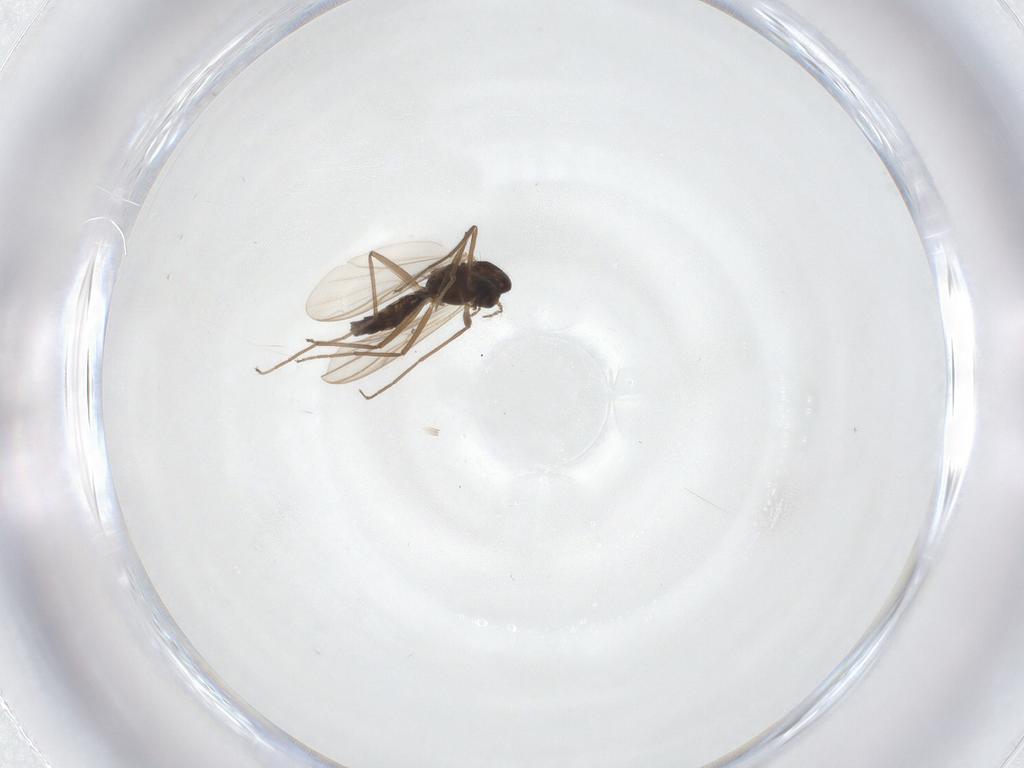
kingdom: Animalia
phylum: Arthropoda
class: Insecta
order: Diptera
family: Psychodidae
